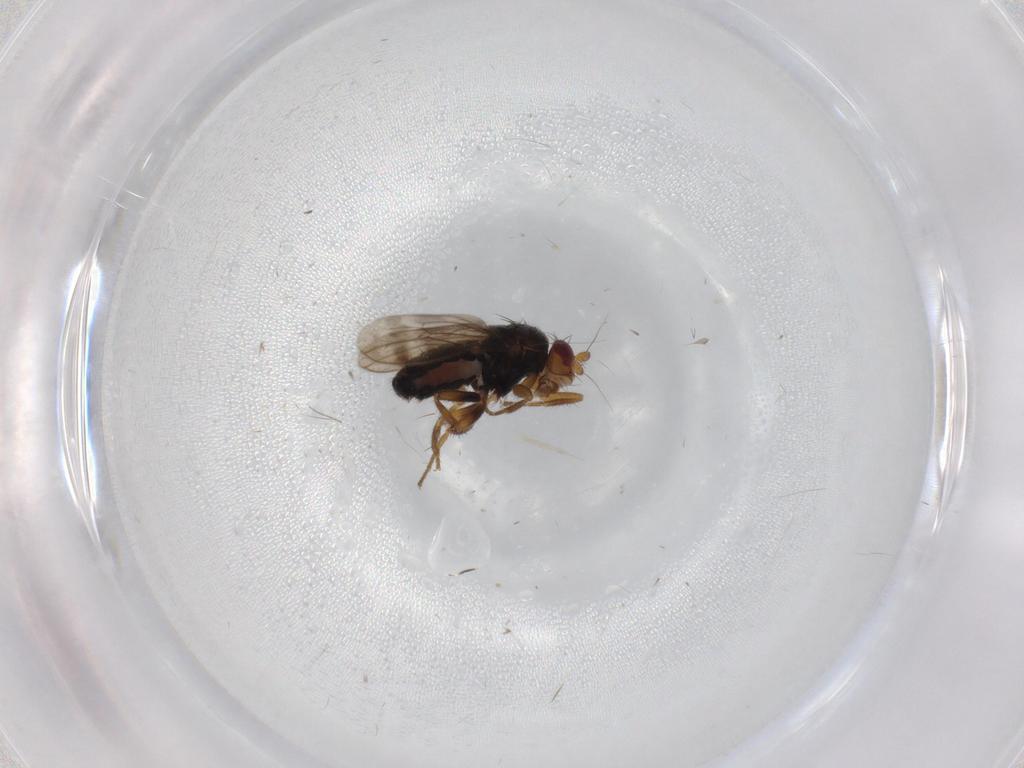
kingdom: Animalia
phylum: Arthropoda
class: Insecta
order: Diptera
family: Sphaeroceridae
